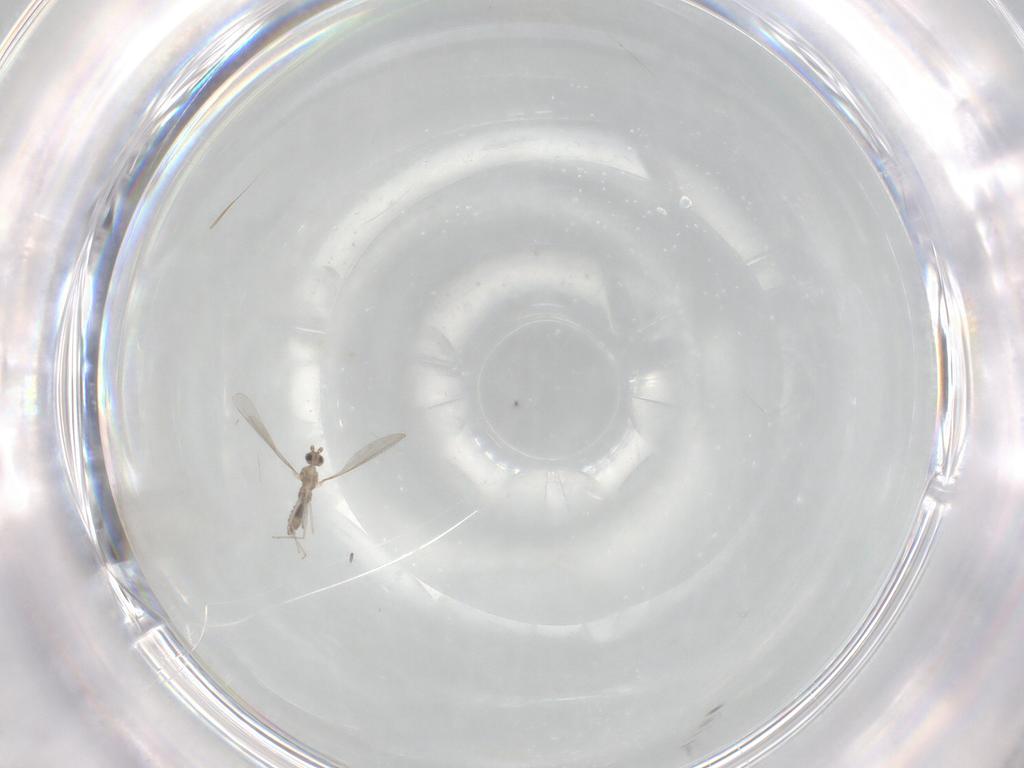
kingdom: Animalia
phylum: Arthropoda
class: Insecta
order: Diptera
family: Cecidomyiidae
